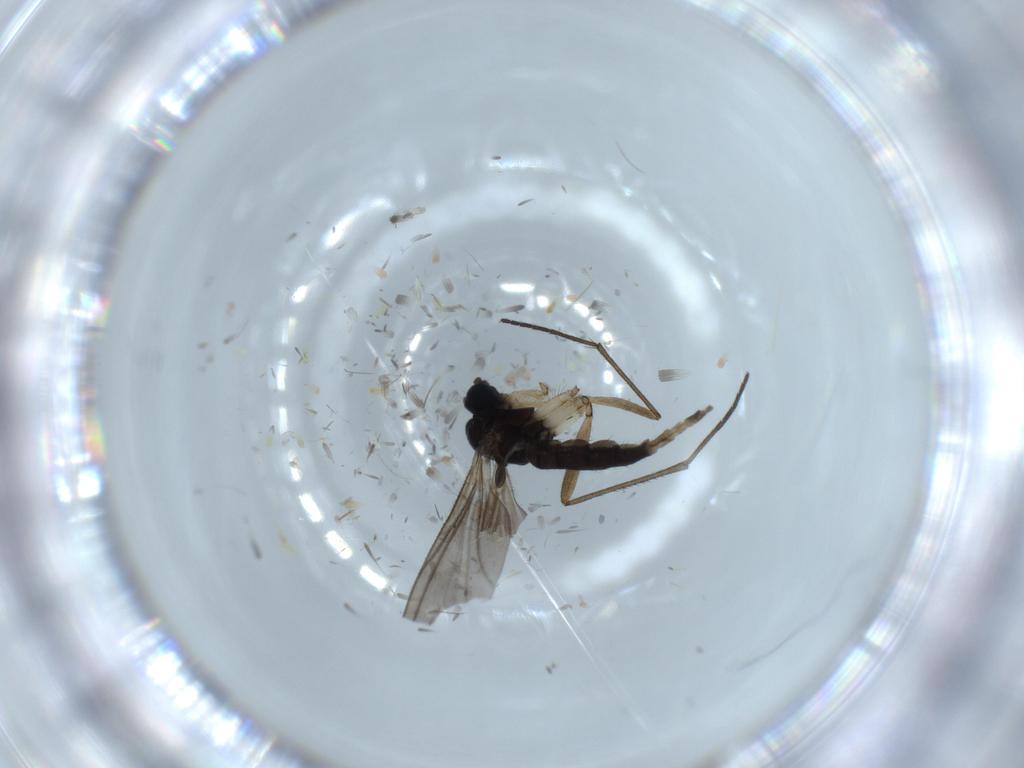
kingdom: Animalia
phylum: Arthropoda
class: Insecta
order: Diptera
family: Sciaridae
